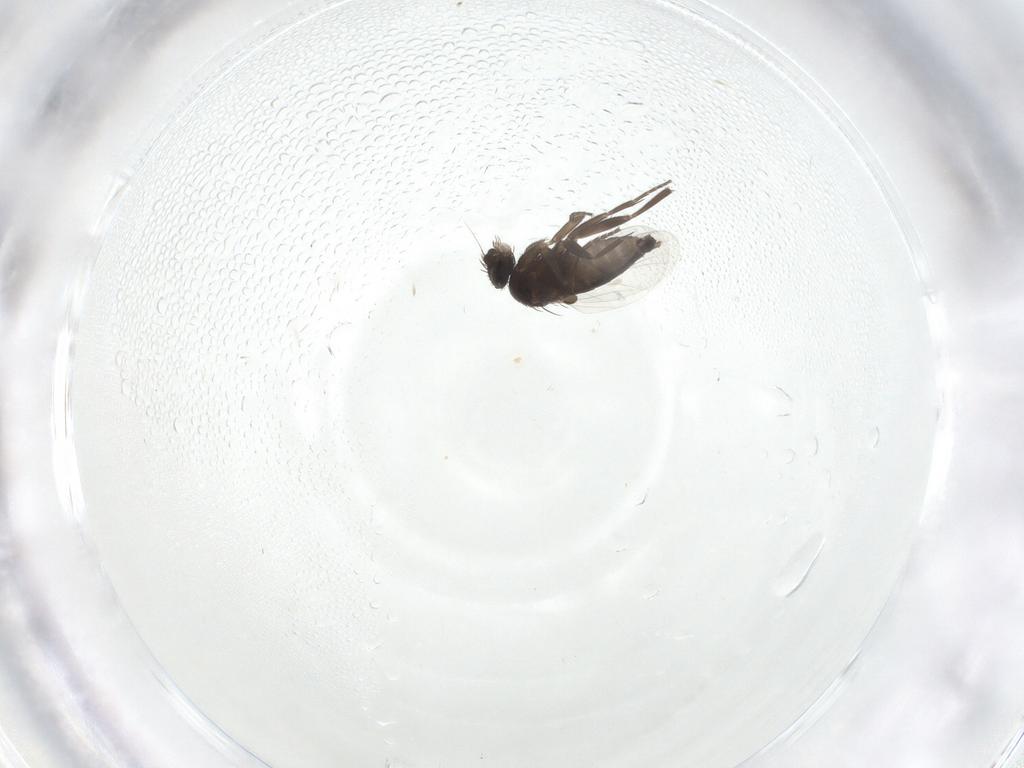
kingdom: Animalia
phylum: Arthropoda
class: Insecta
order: Diptera
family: Phoridae
